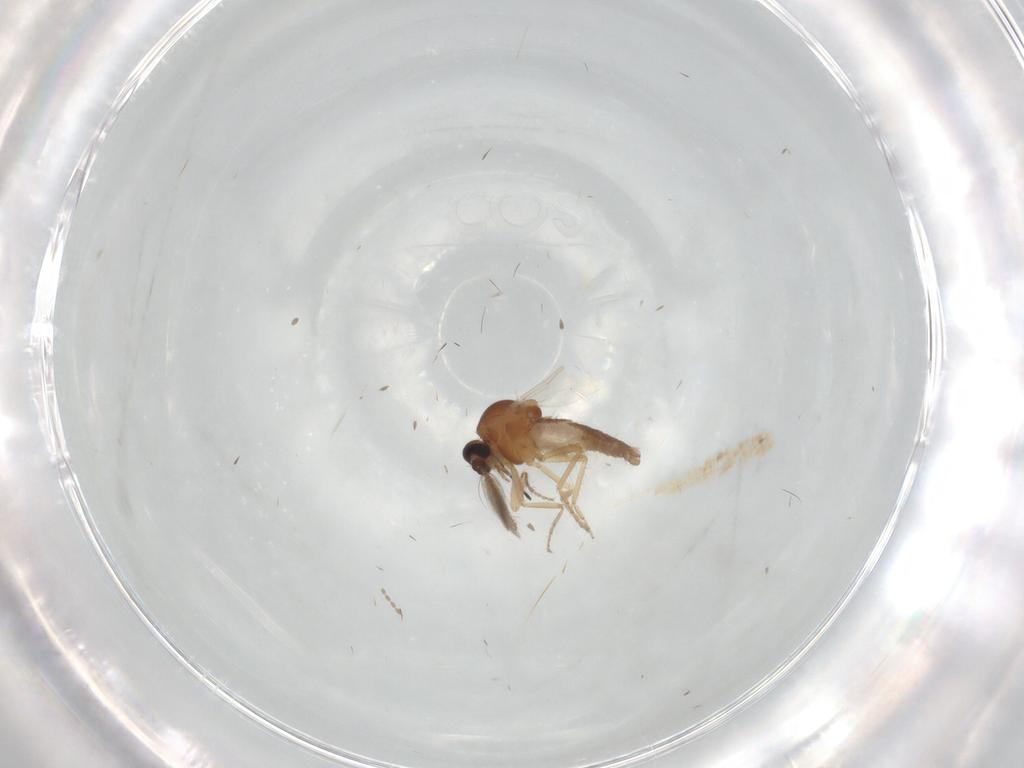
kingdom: Animalia
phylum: Arthropoda
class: Insecta
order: Diptera
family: Ceratopogonidae
